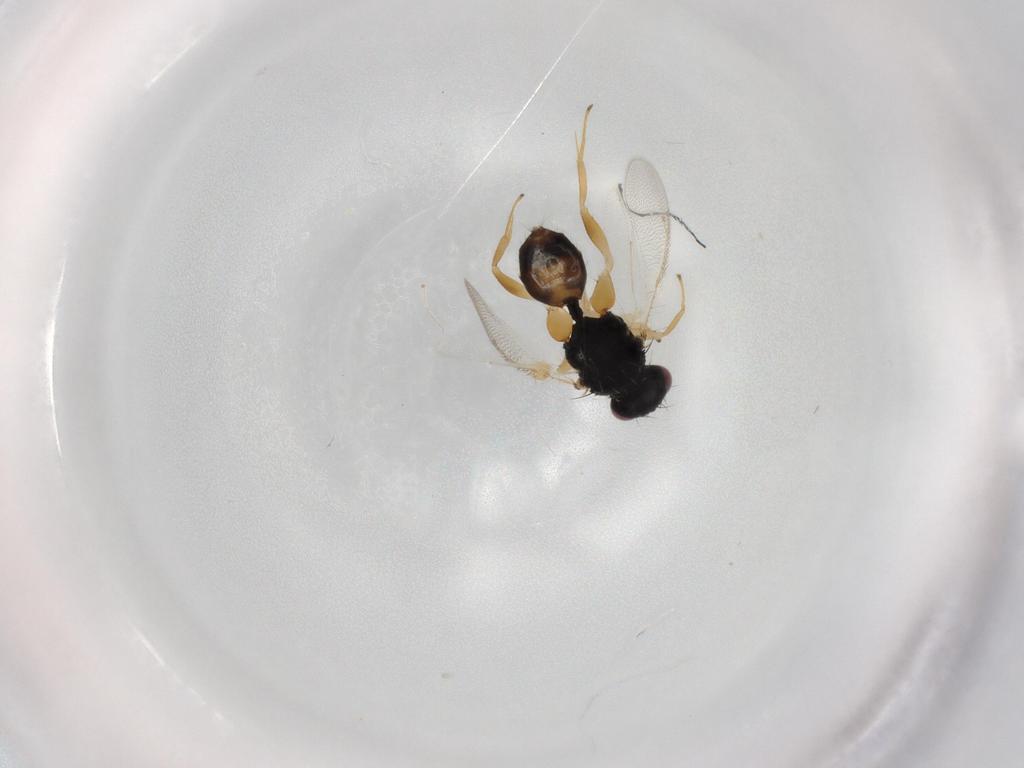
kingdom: Animalia
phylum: Arthropoda
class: Insecta
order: Hymenoptera
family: Eulophidae
